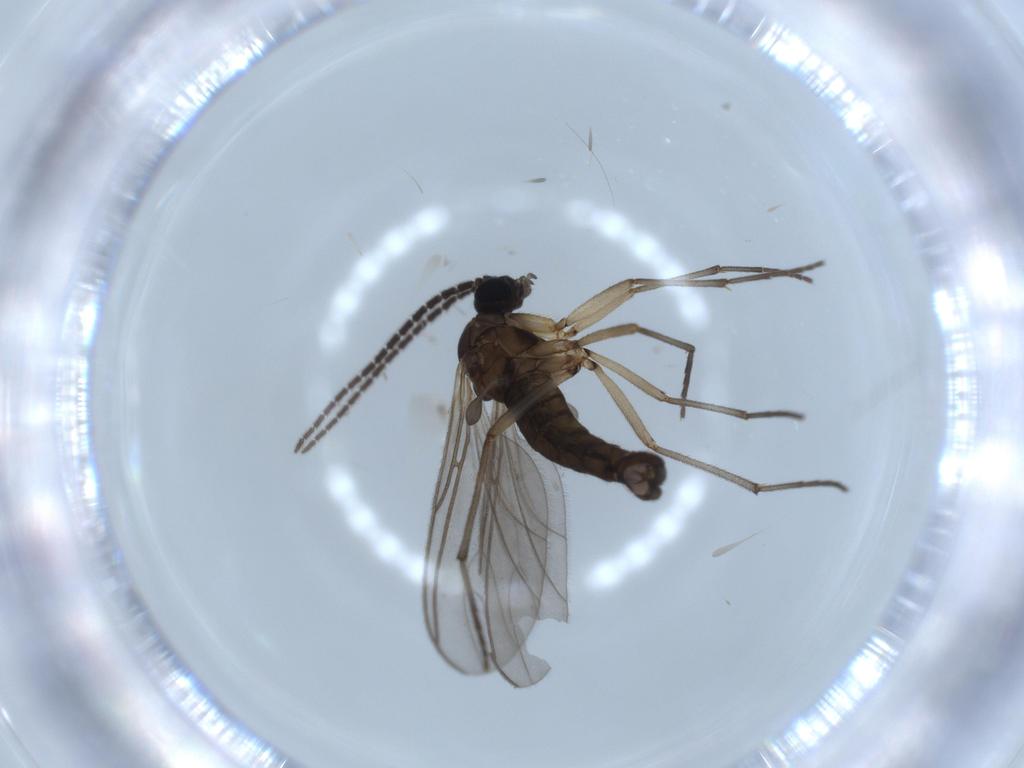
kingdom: Animalia
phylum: Arthropoda
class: Insecta
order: Diptera
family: Sciaridae
